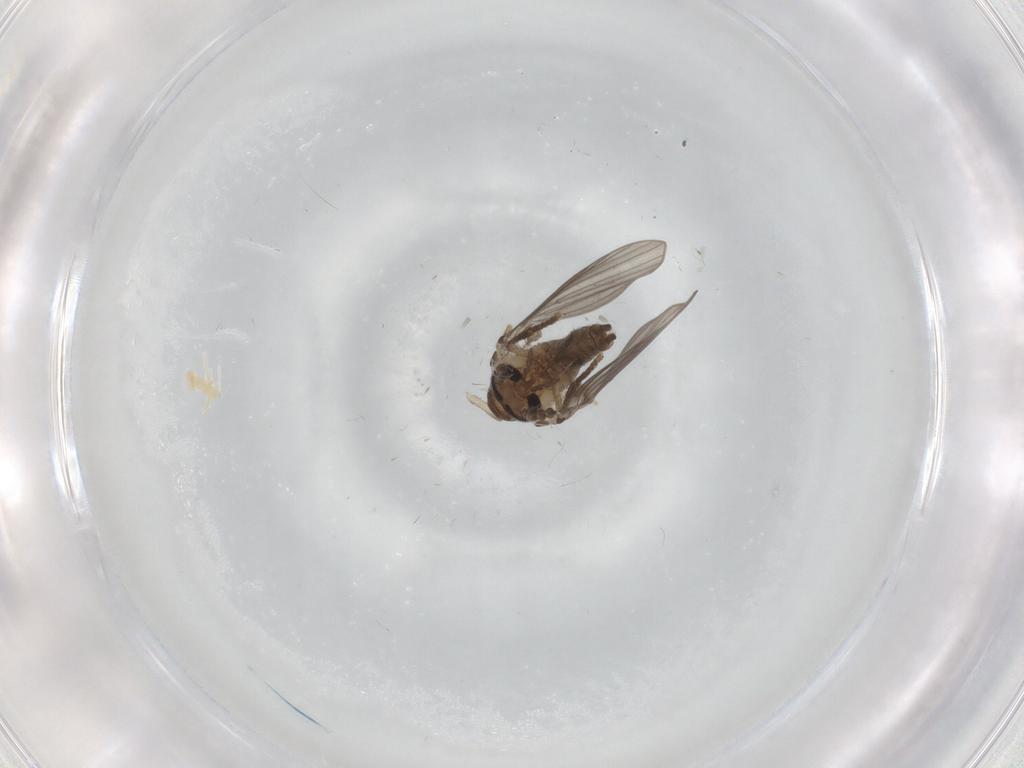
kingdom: Animalia
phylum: Arthropoda
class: Insecta
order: Diptera
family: Psychodidae
